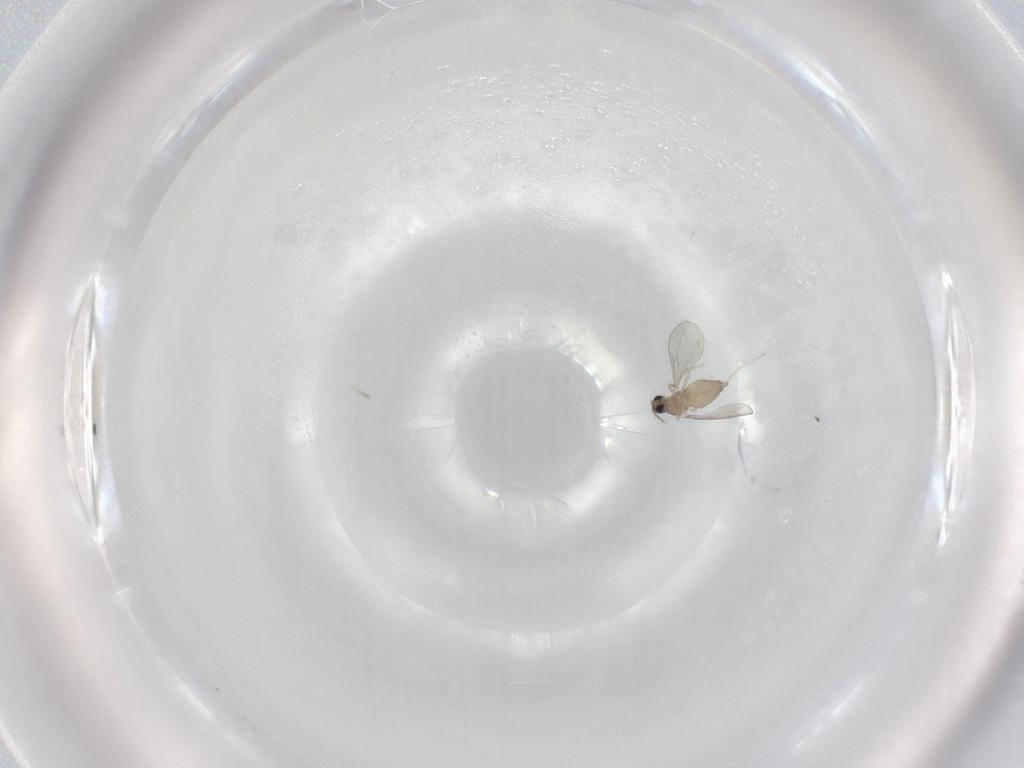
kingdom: Animalia
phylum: Arthropoda
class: Insecta
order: Diptera
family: Cecidomyiidae
